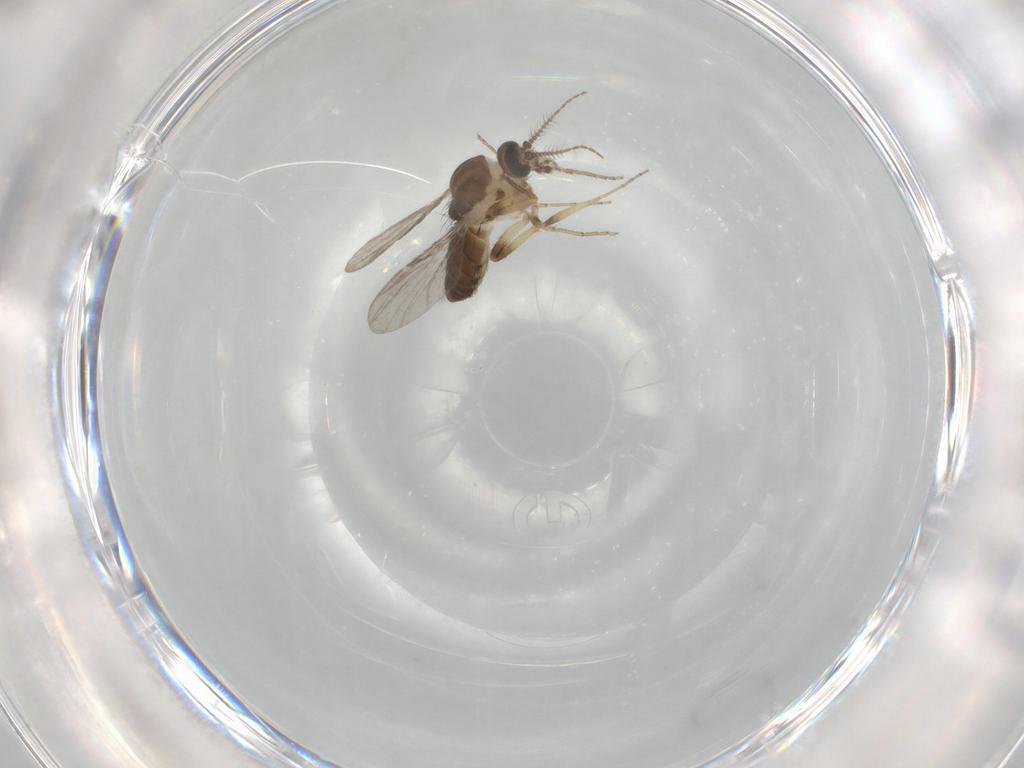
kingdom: Animalia
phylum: Arthropoda
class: Insecta
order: Diptera
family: Ceratopogonidae
